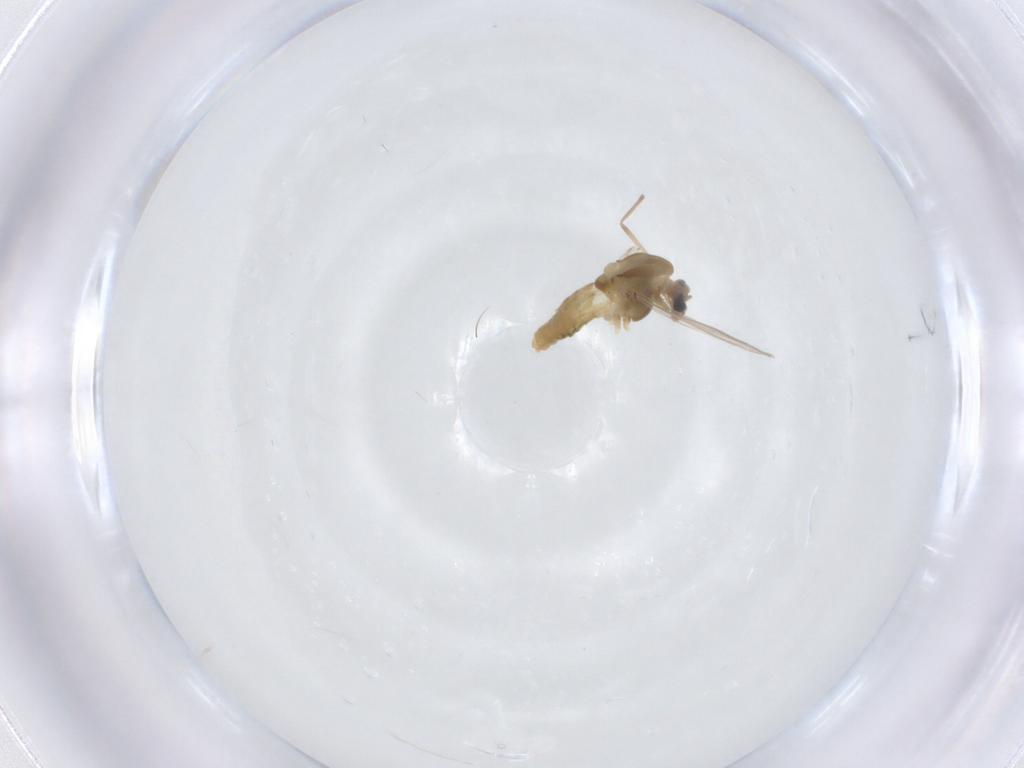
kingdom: Animalia
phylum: Arthropoda
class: Insecta
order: Diptera
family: Chironomidae
